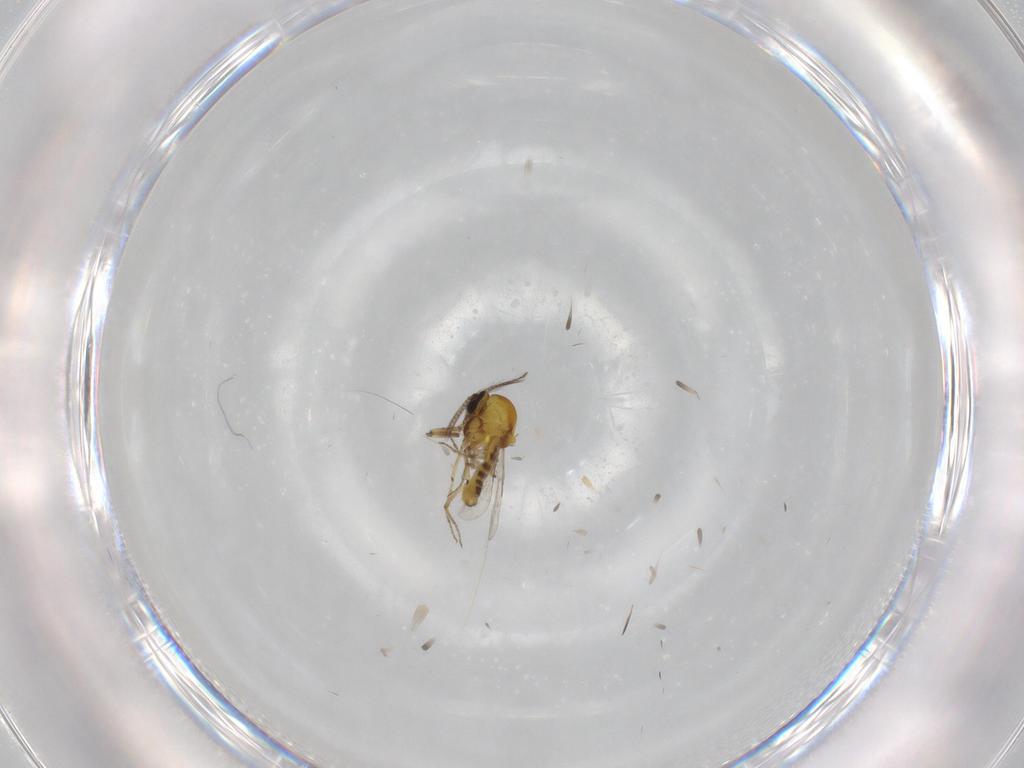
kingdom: Animalia
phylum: Arthropoda
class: Insecta
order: Diptera
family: Ceratopogonidae
